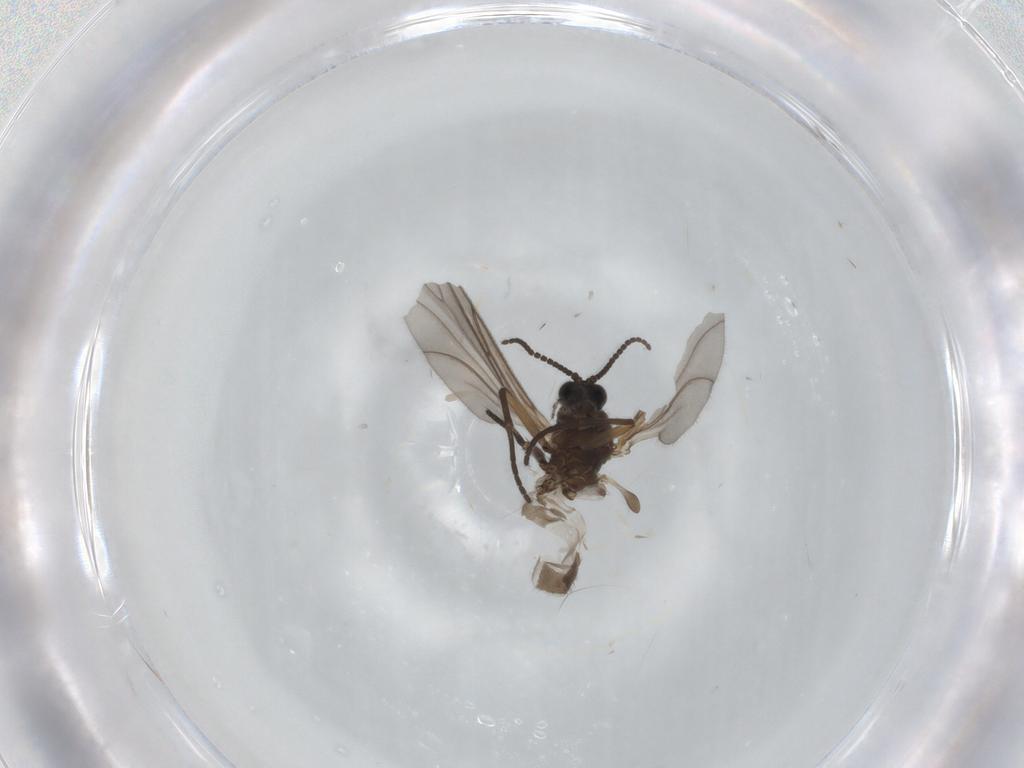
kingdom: Animalia
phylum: Arthropoda
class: Insecta
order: Diptera
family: Sciaridae
